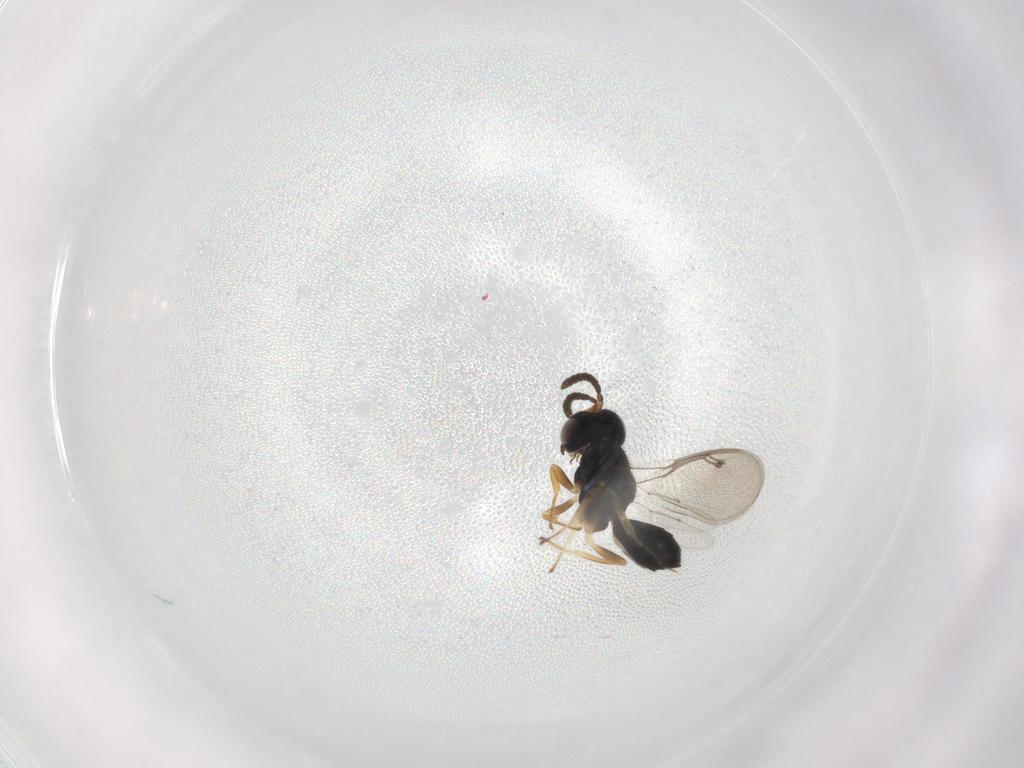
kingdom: Animalia
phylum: Arthropoda
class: Insecta
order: Hymenoptera
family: Pteromalidae
